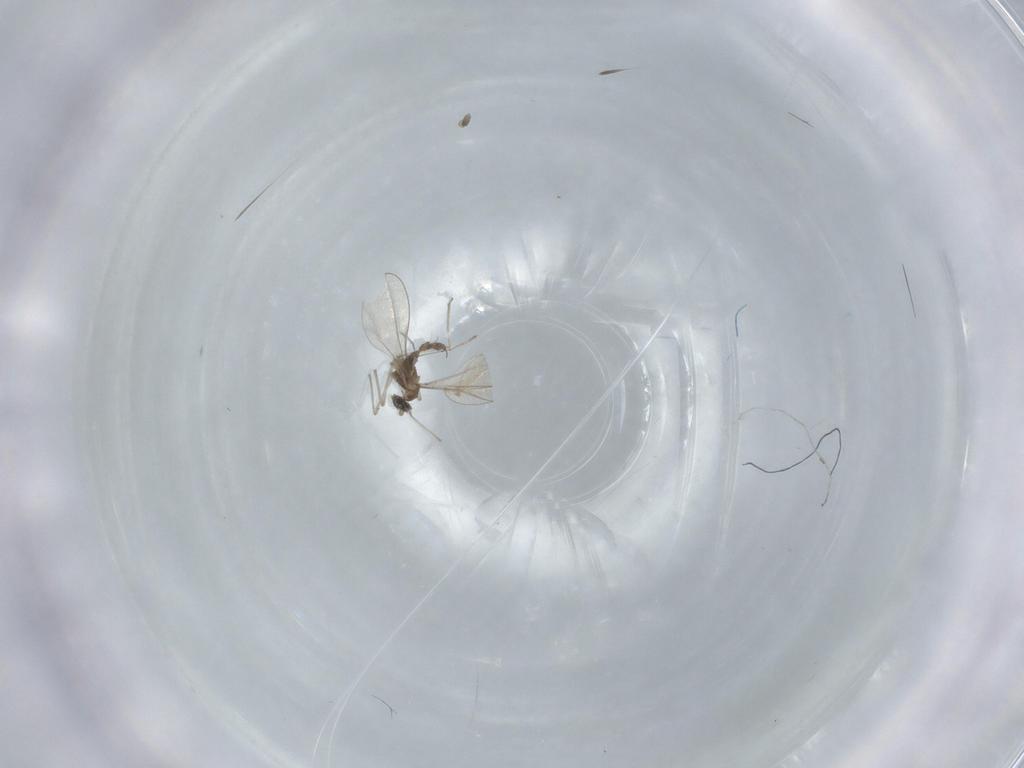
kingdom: Animalia
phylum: Arthropoda
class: Insecta
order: Diptera
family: Cecidomyiidae
